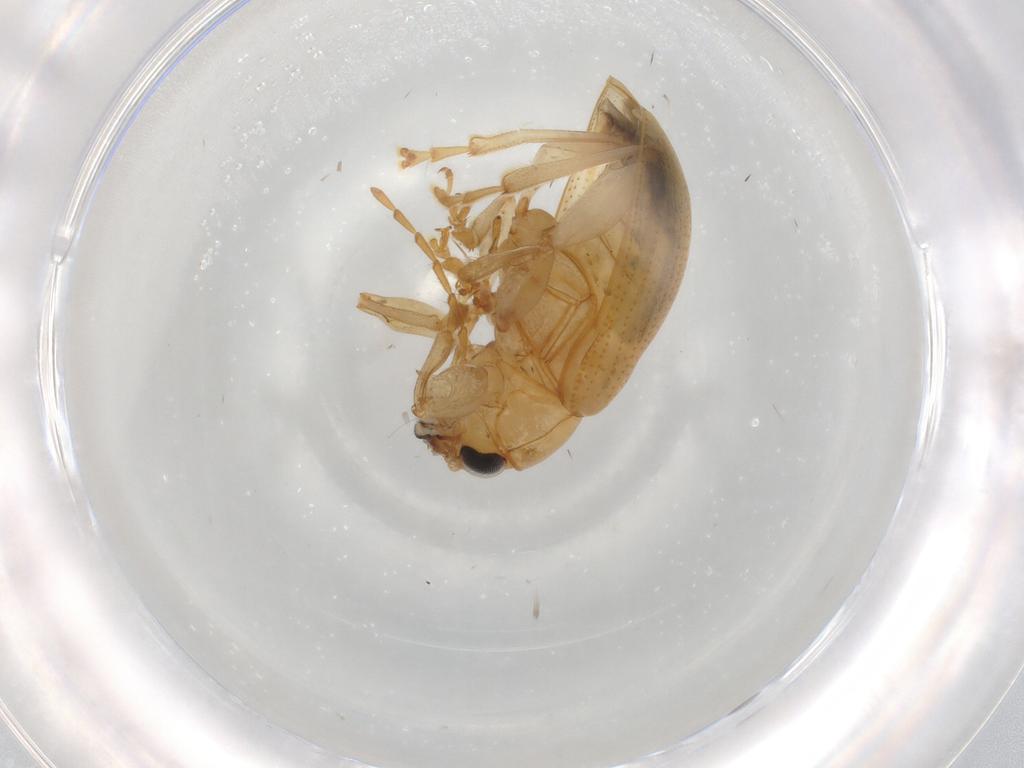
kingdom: Animalia
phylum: Arthropoda
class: Insecta
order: Coleoptera
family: Chrysomelidae
